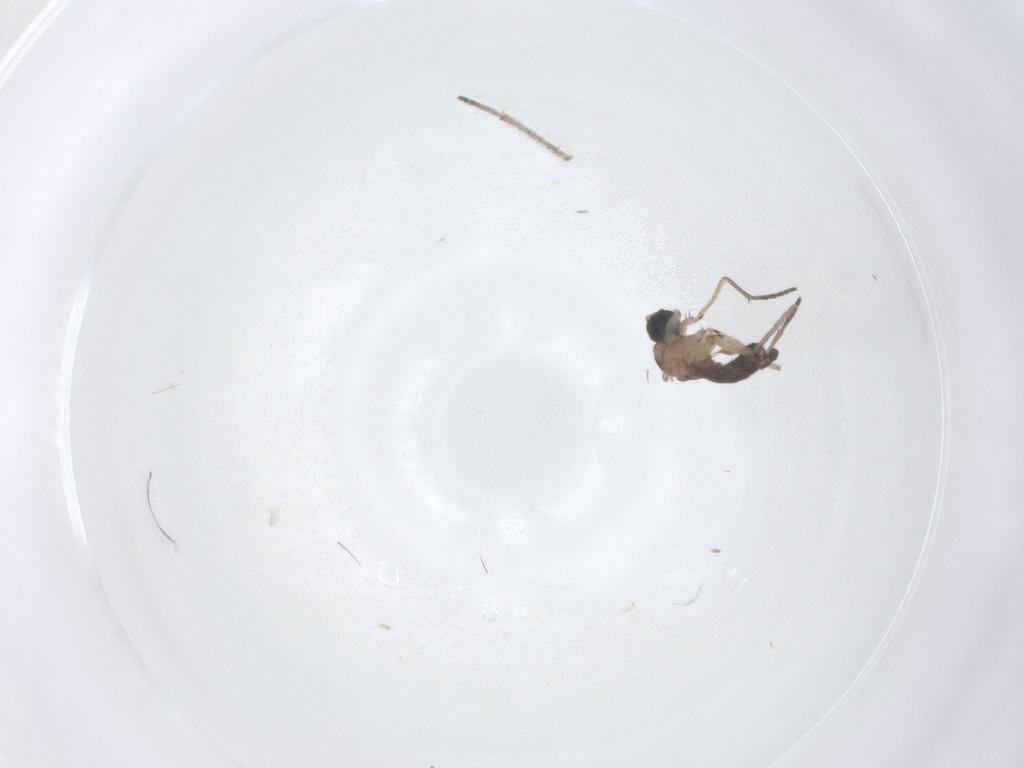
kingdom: Animalia
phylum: Arthropoda
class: Insecta
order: Diptera
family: Sciaridae
